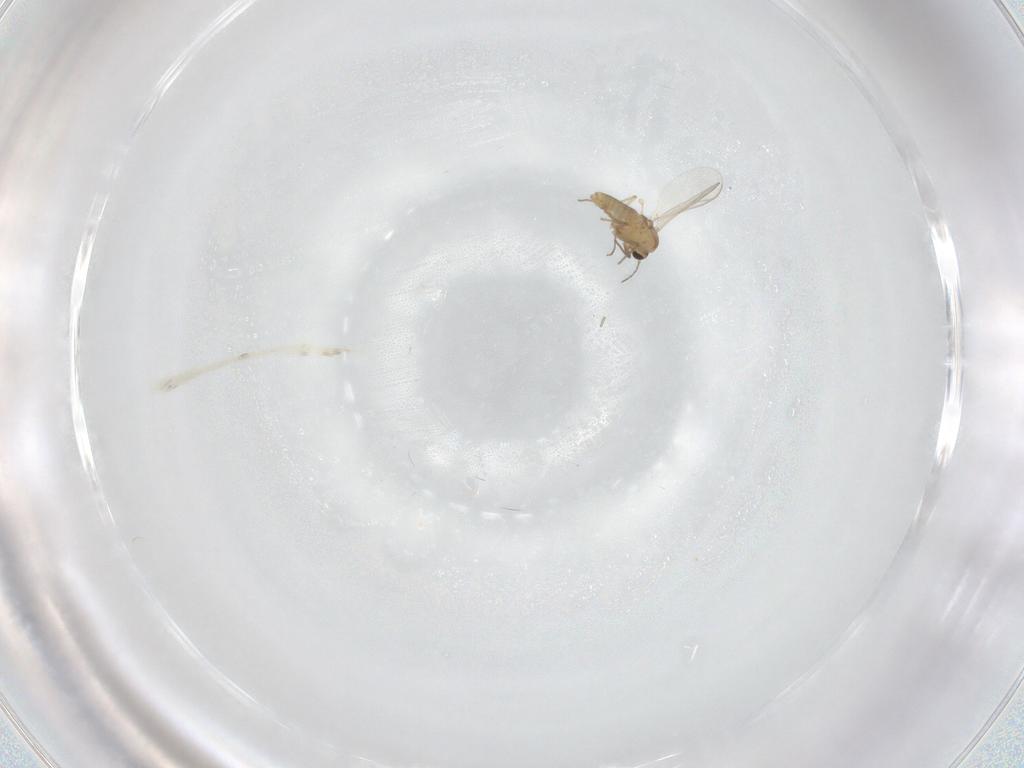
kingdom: Animalia
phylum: Arthropoda
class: Insecta
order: Diptera
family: Chironomidae
